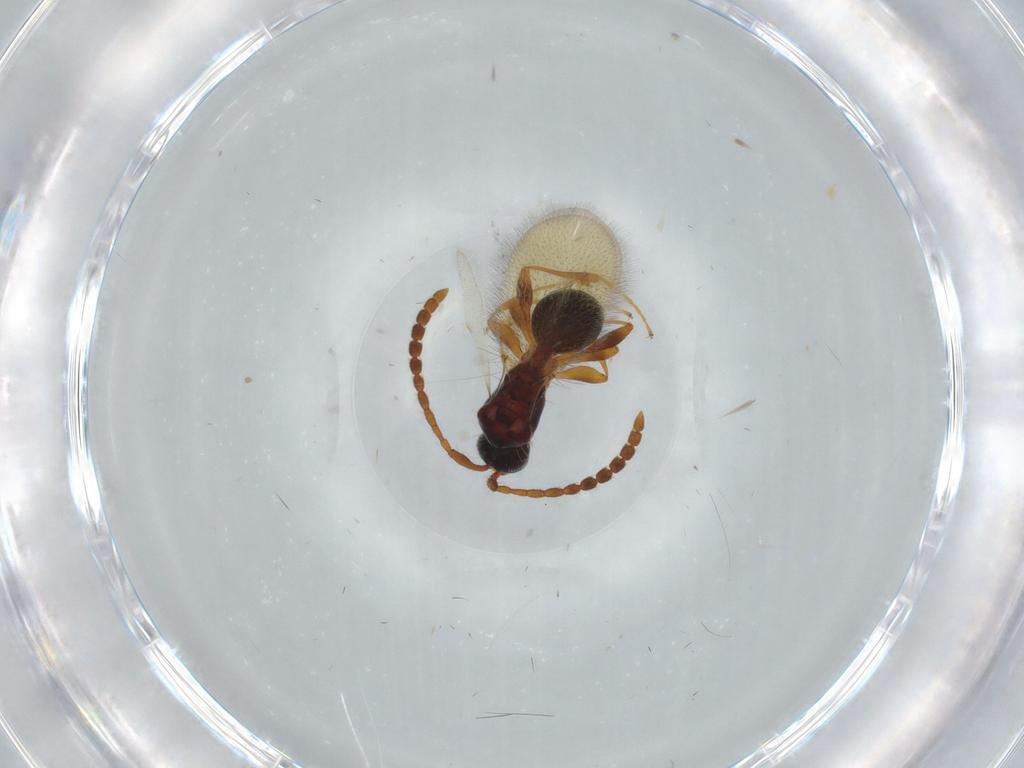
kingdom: Animalia
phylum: Arthropoda
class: Insecta
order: Hymenoptera
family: Diapriidae
